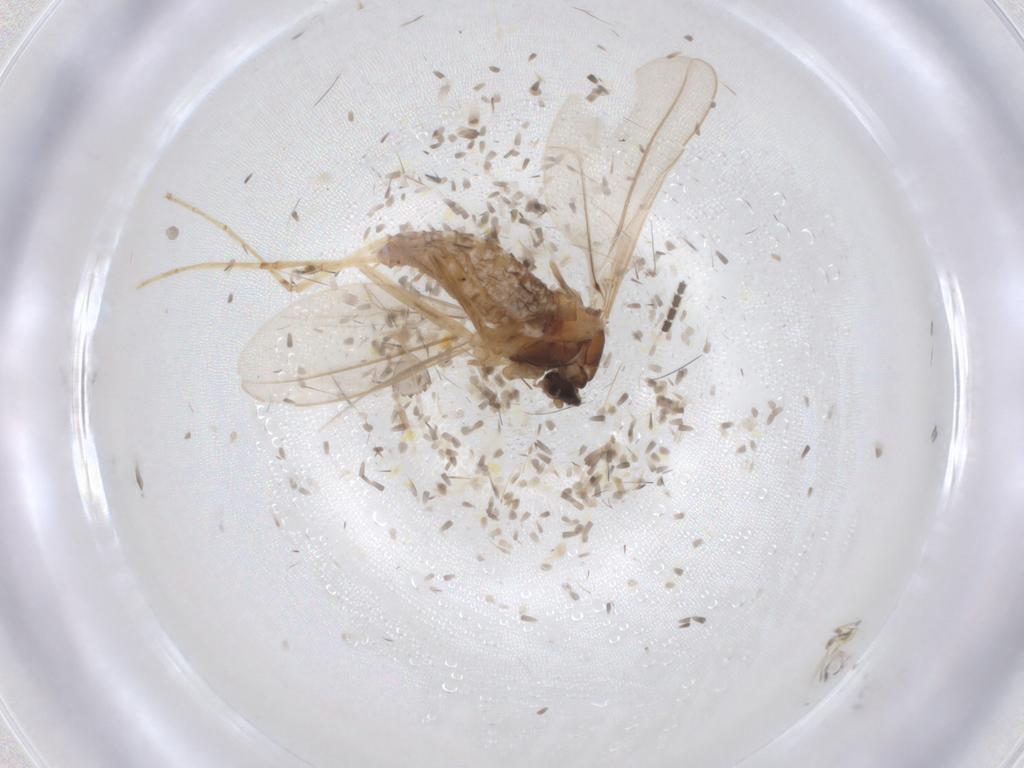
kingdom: Animalia
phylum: Arthropoda
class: Insecta
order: Diptera
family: Cecidomyiidae
